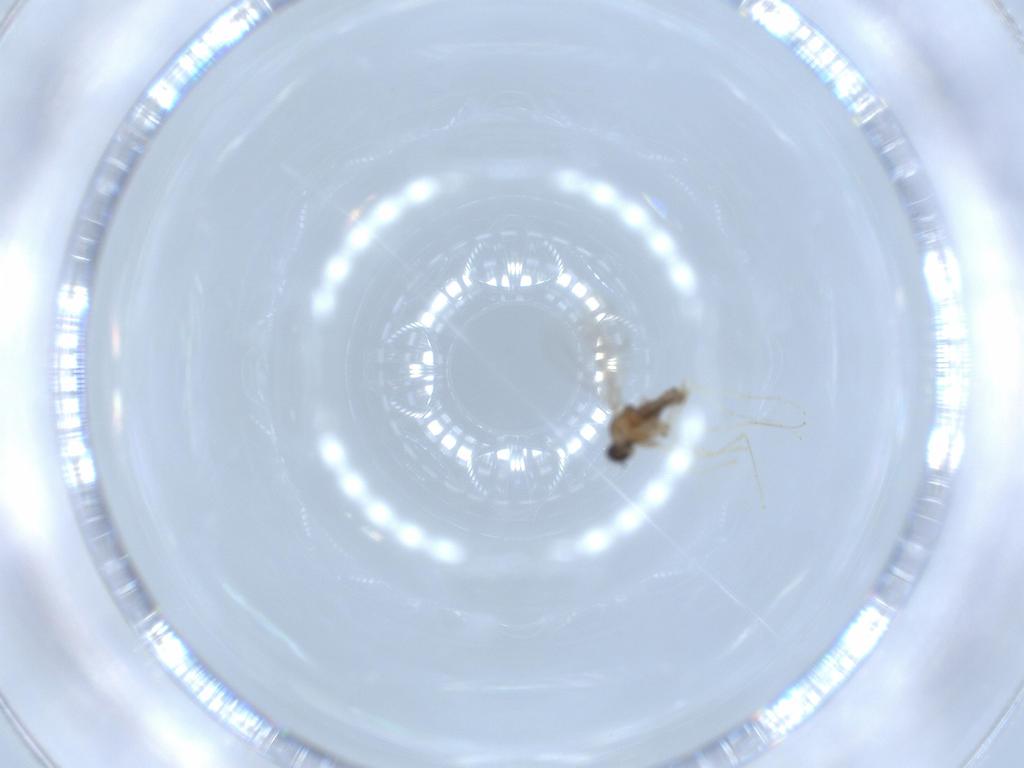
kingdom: Animalia
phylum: Arthropoda
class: Insecta
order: Diptera
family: Cecidomyiidae
